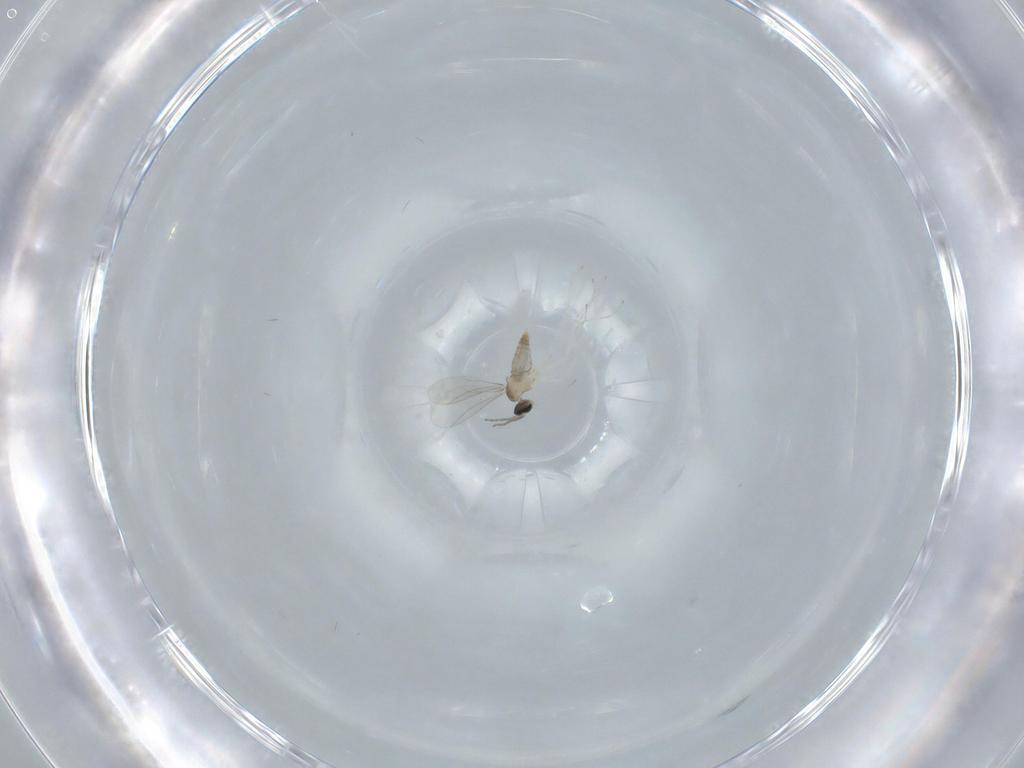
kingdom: Animalia
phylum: Arthropoda
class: Insecta
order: Diptera
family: Cecidomyiidae
